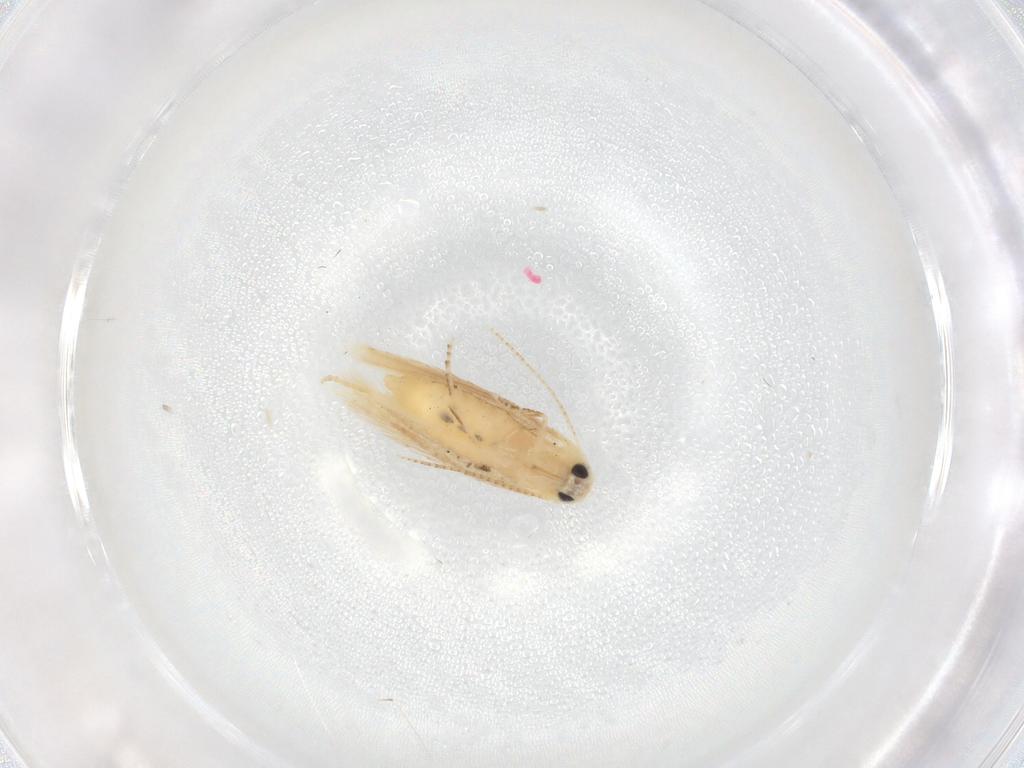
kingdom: Animalia
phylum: Arthropoda
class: Insecta
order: Lepidoptera
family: Depressariidae
